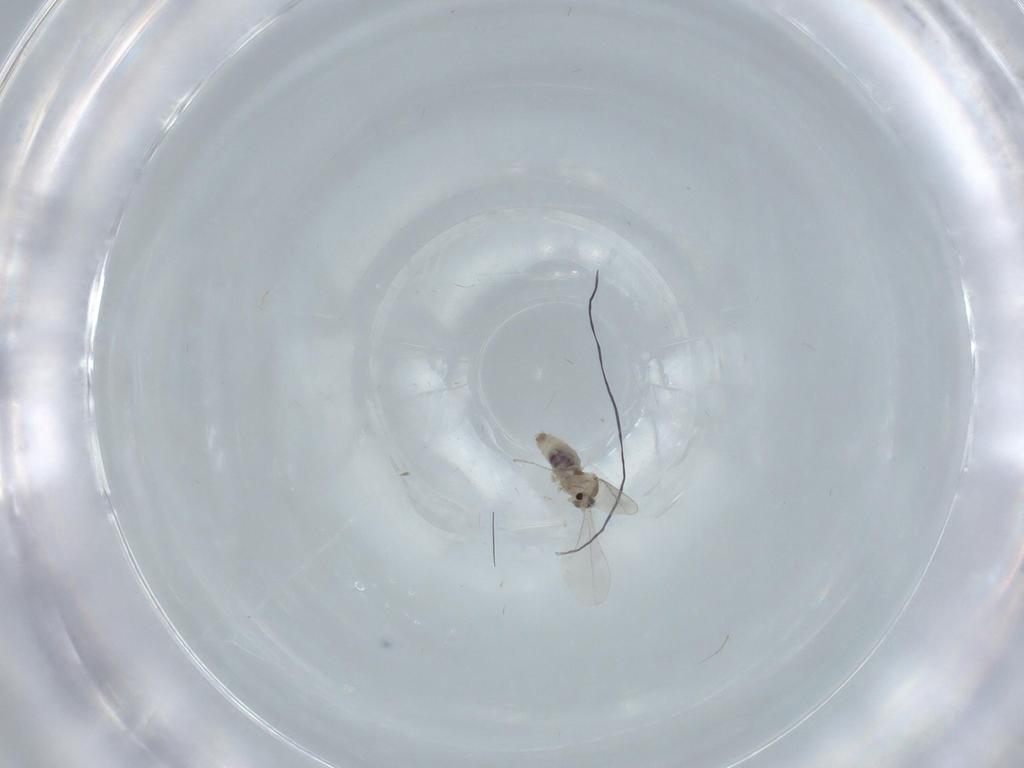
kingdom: Animalia
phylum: Arthropoda
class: Insecta
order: Diptera
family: Cecidomyiidae
